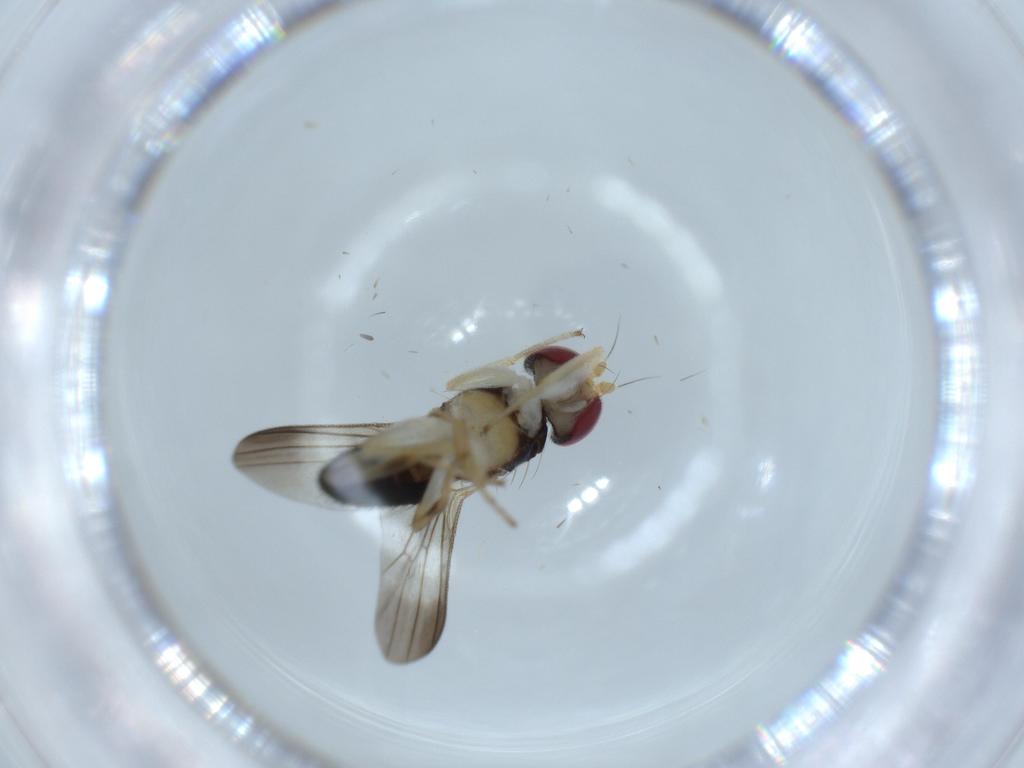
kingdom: Animalia
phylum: Arthropoda
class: Insecta
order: Diptera
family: Clusiidae
